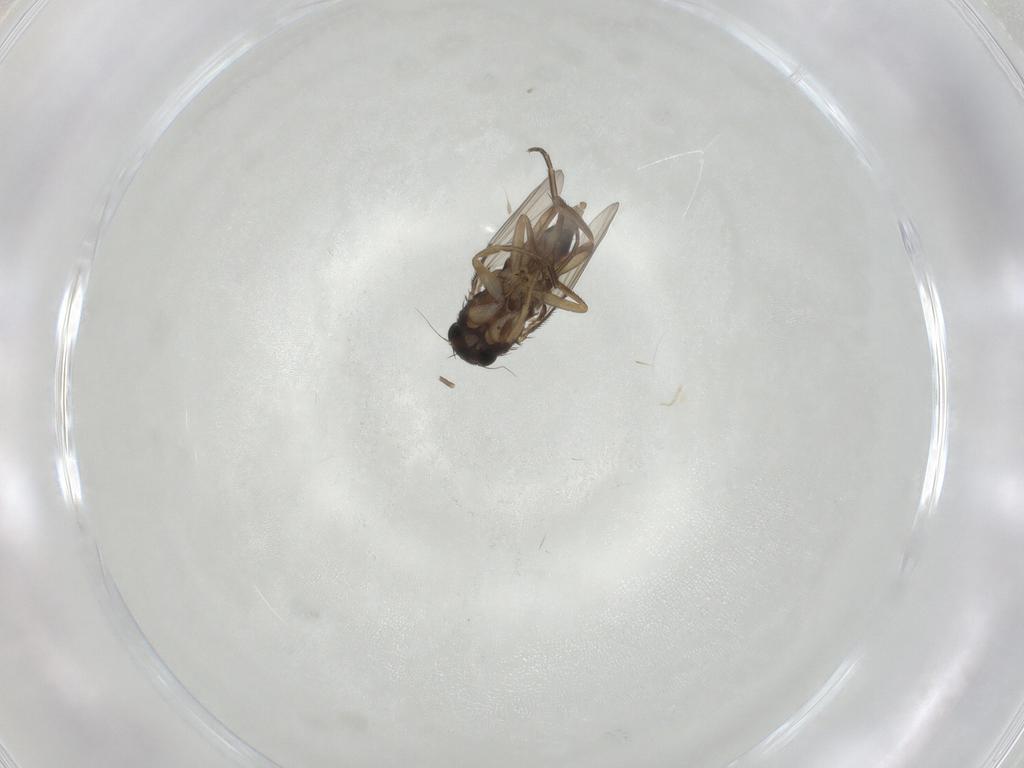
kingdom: Animalia
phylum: Arthropoda
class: Insecta
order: Diptera
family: Phoridae
